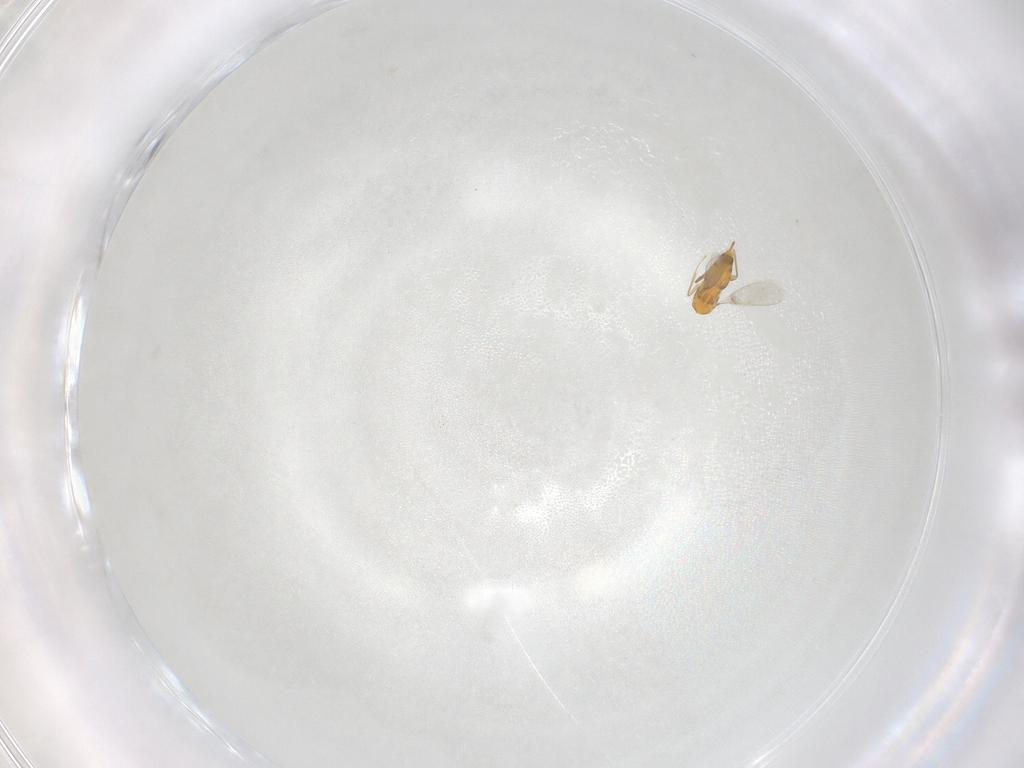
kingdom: Animalia
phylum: Arthropoda
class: Insecta
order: Hymenoptera
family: Aphelinidae
